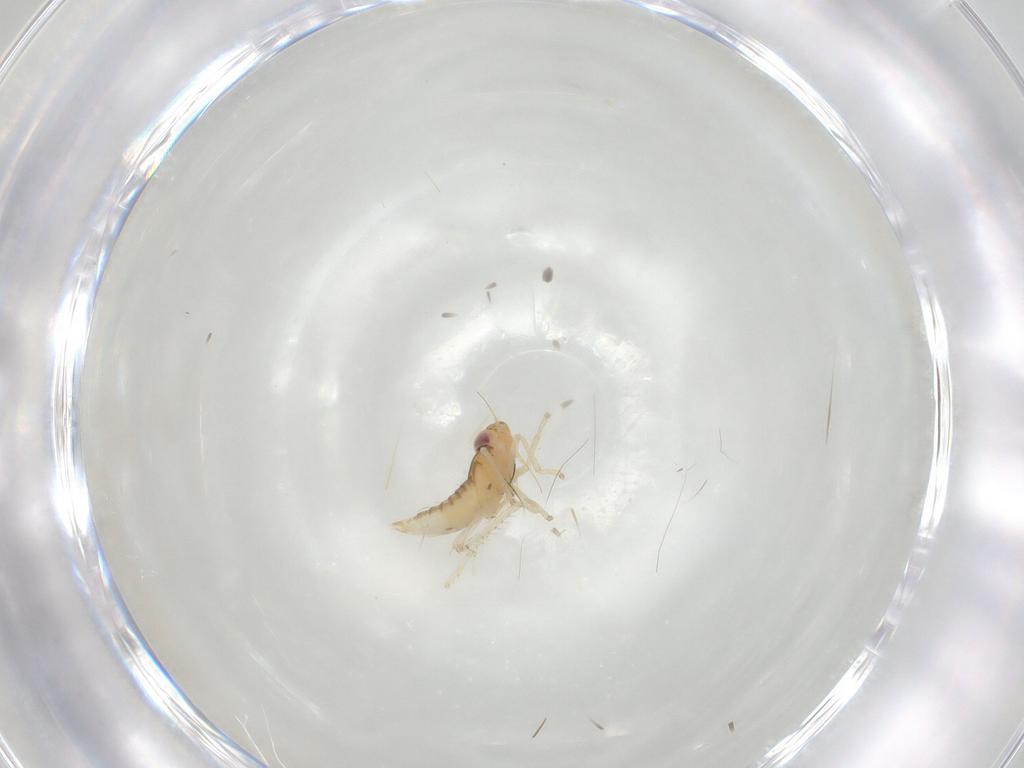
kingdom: Animalia
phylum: Arthropoda
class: Insecta
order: Hemiptera
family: Cicadellidae
